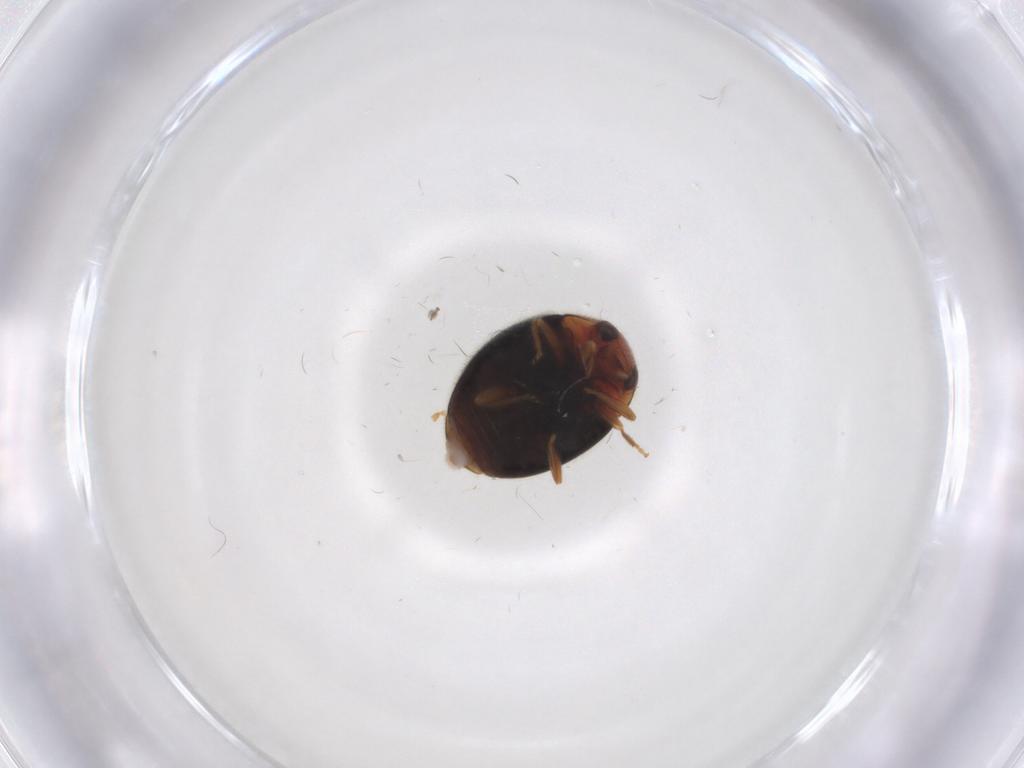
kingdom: Animalia
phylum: Arthropoda
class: Insecta
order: Coleoptera
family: Coccinellidae
